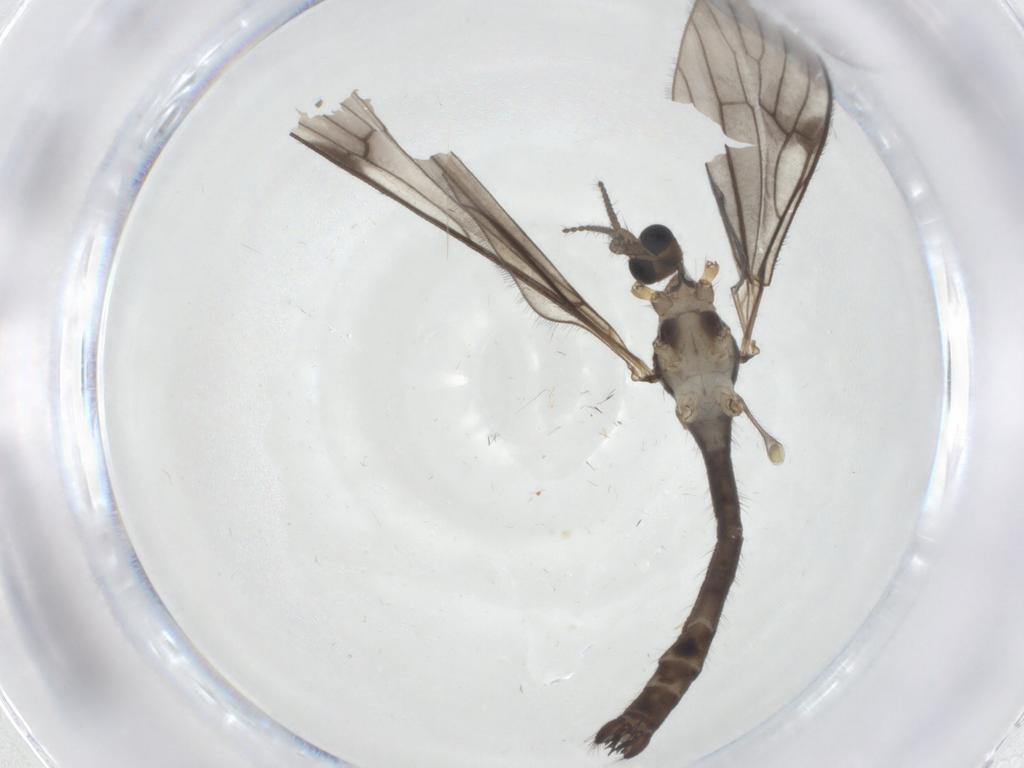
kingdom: Animalia
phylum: Arthropoda
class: Insecta
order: Diptera
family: Limoniidae
